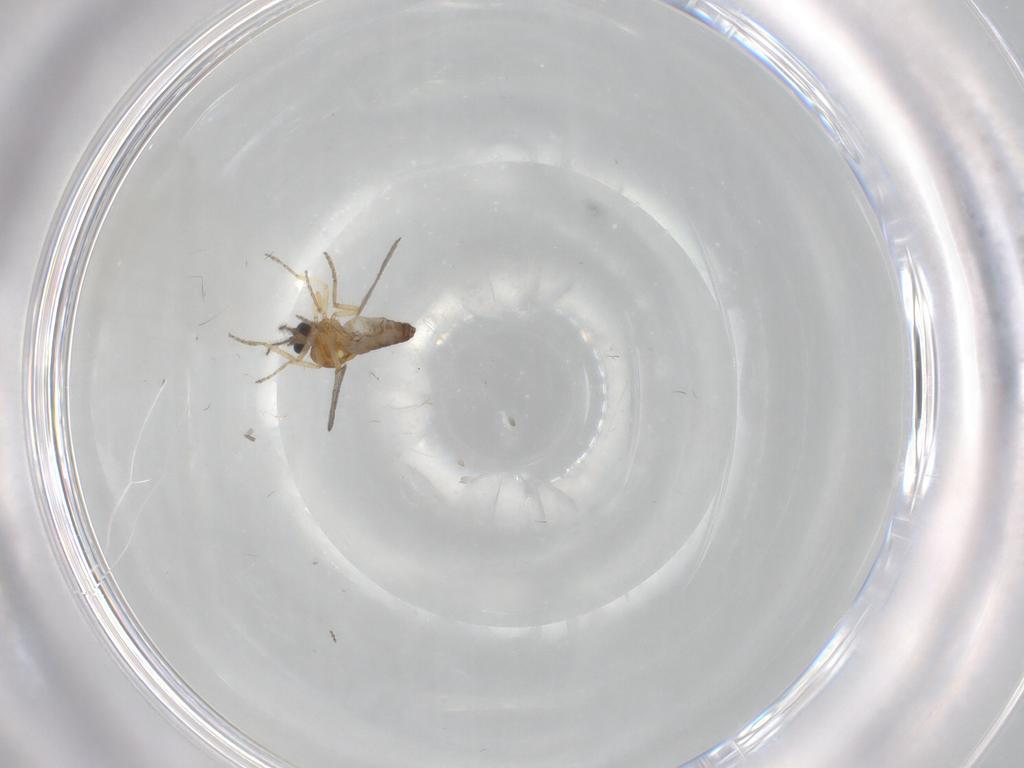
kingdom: Animalia
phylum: Arthropoda
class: Insecta
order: Diptera
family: Ceratopogonidae
